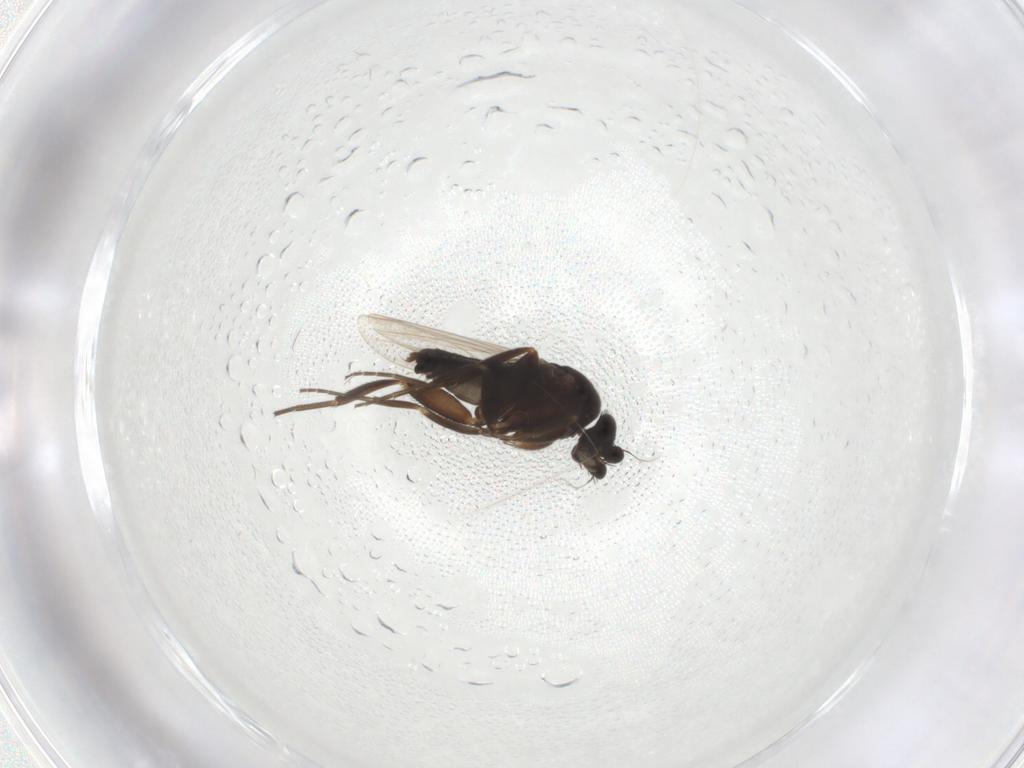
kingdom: Animalia
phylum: Arthropoda
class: Insecta
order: Diptera
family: Phoridae
